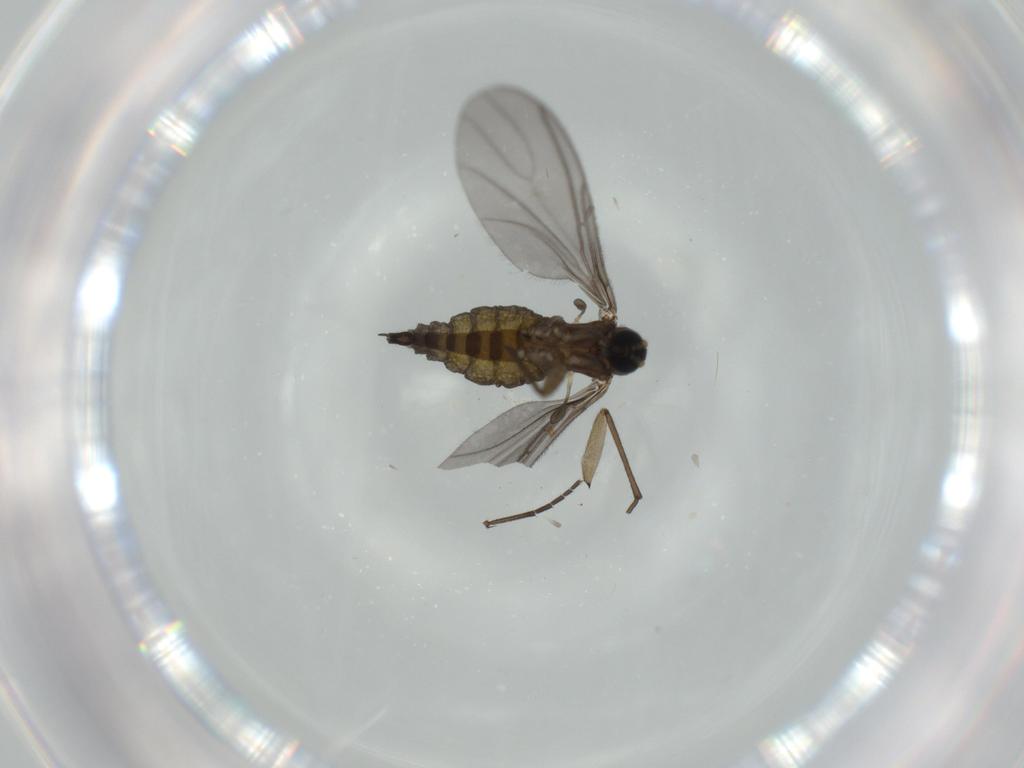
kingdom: Animalia
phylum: Arthropoda
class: Insecta
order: Diptera
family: Sciaridae
